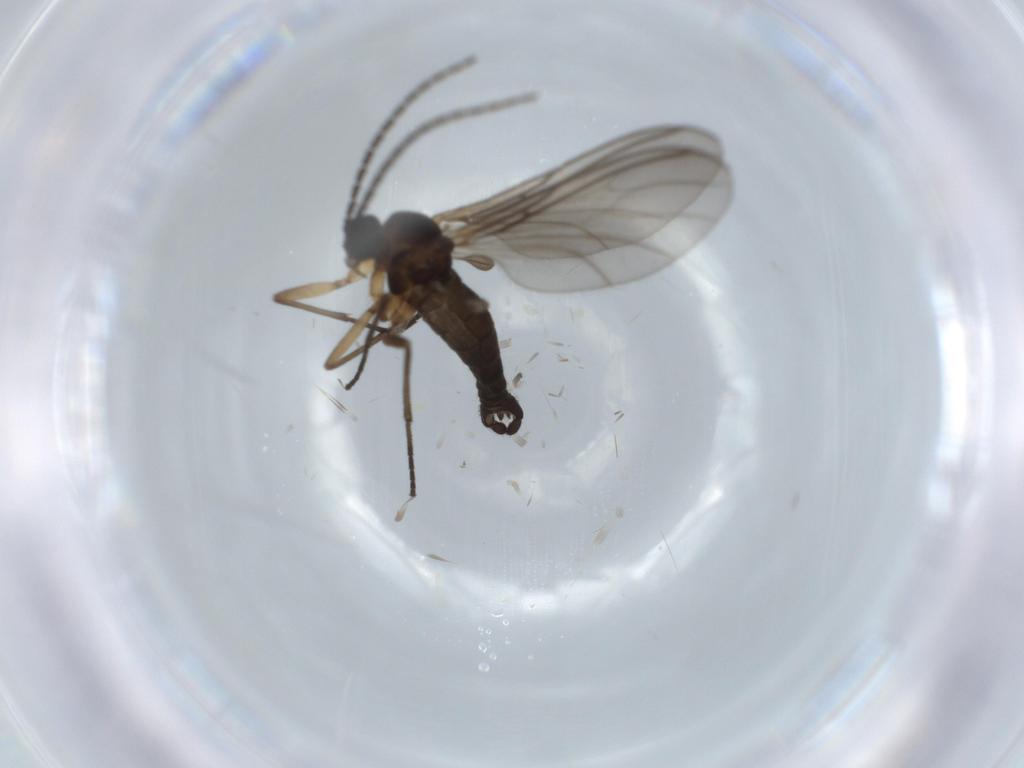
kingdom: Animalia
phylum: Arthropoda
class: Insecta
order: Diptera
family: Sciaridae
